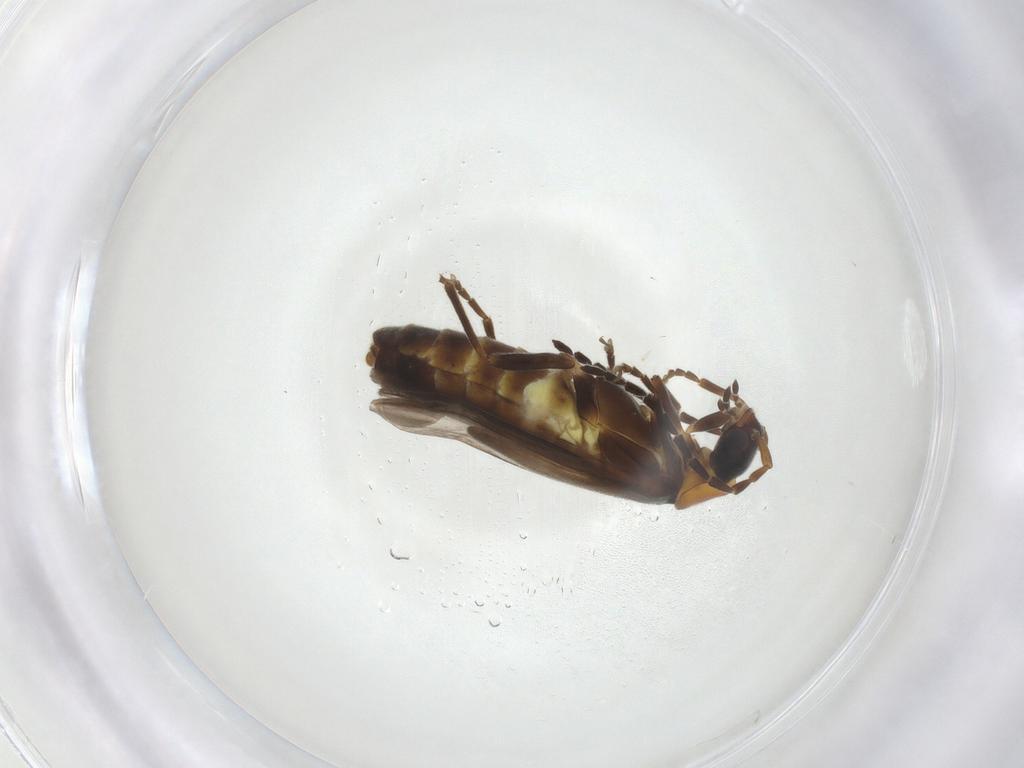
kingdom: Animalia
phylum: Arthropoda
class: Insecta
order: Coleoptera
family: Cantharidae
